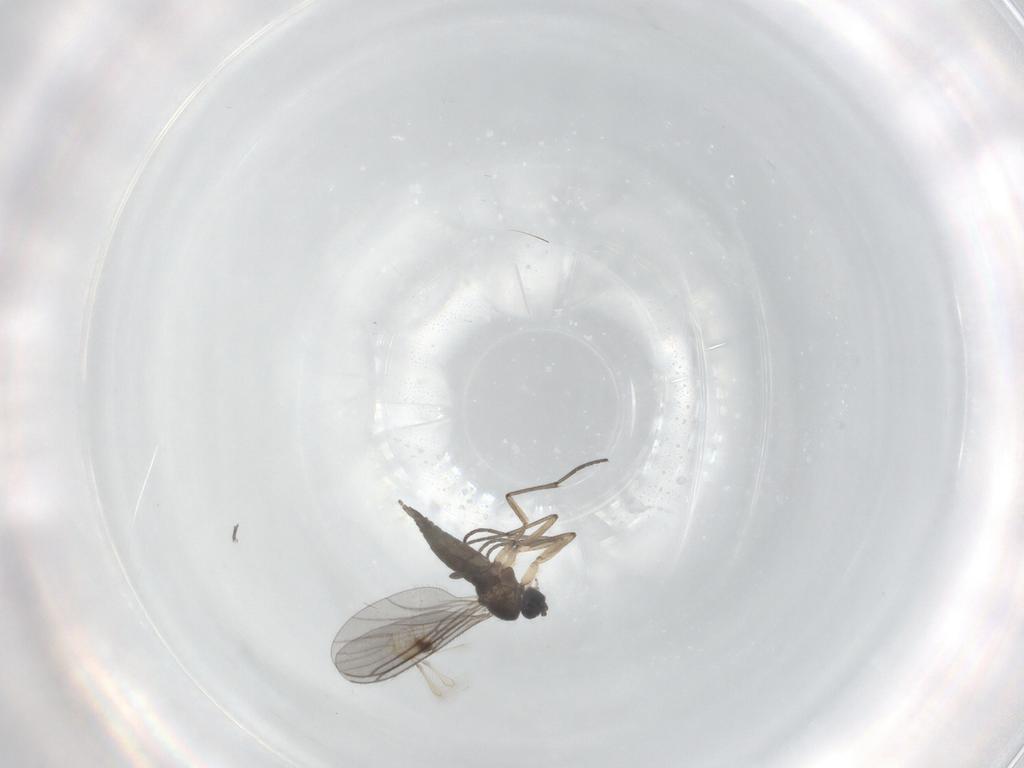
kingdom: Animalia
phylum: Arthropoda
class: Insecta
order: Diptera
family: Sciaridae
